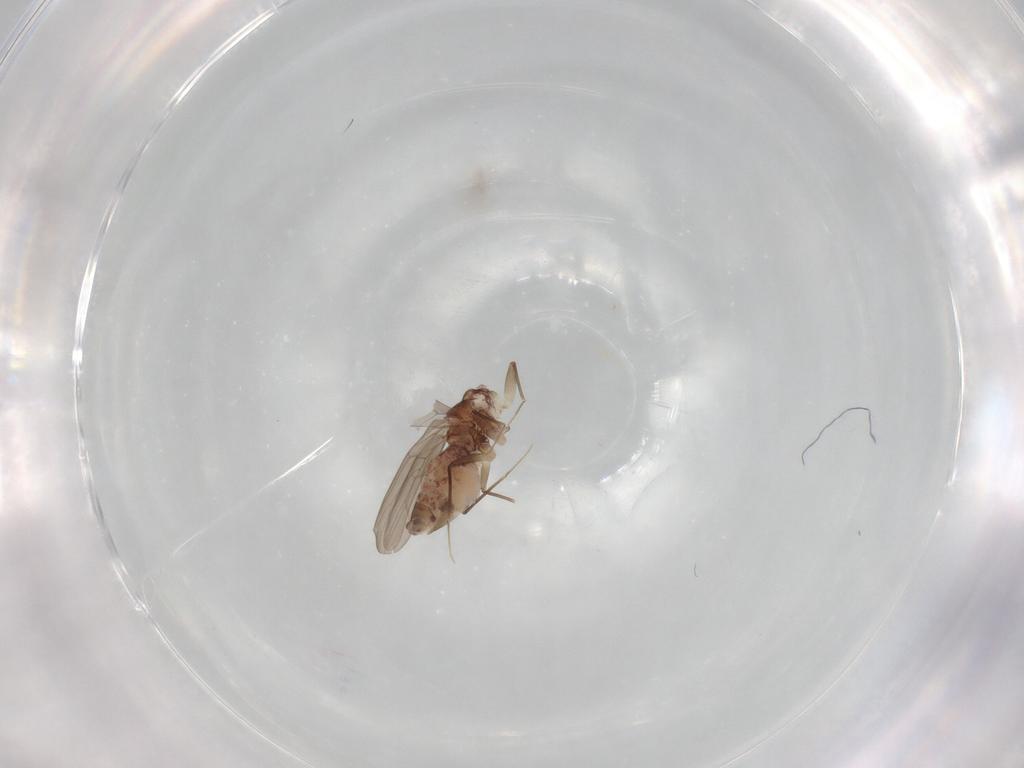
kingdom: Animalia
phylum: Arthropoda
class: Insecta
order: Psocodea
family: Lepidopsocidae
